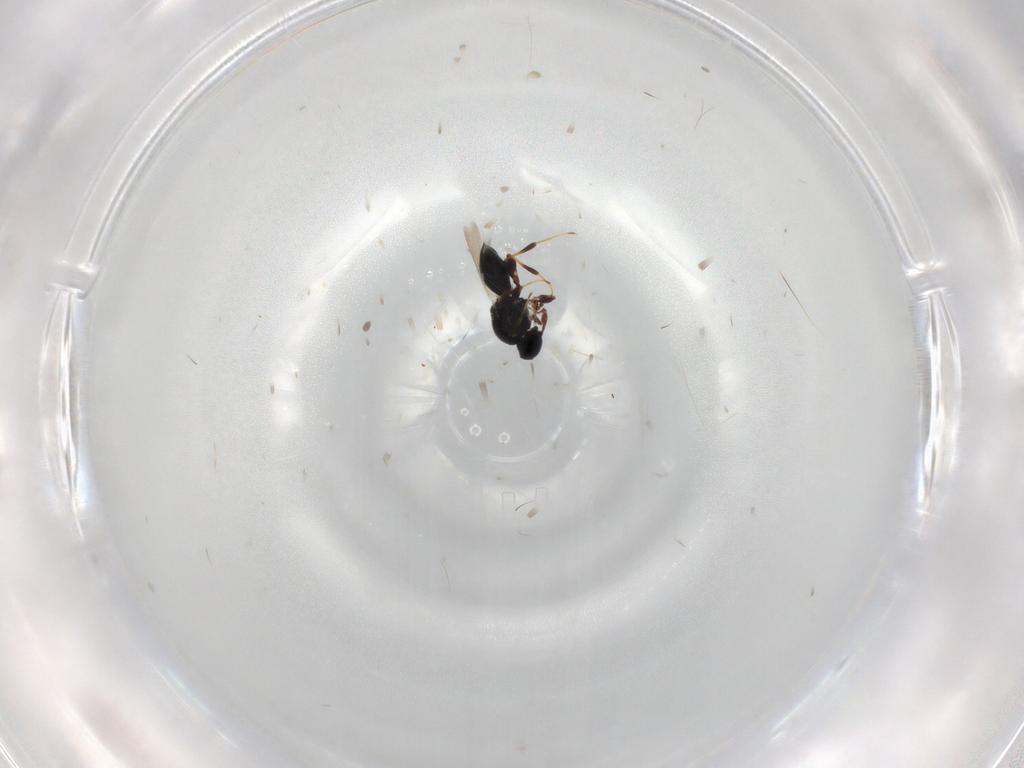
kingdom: Animalia
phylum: Arthropoda
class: Insecta
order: Hymenoptera
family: Platygastridae
